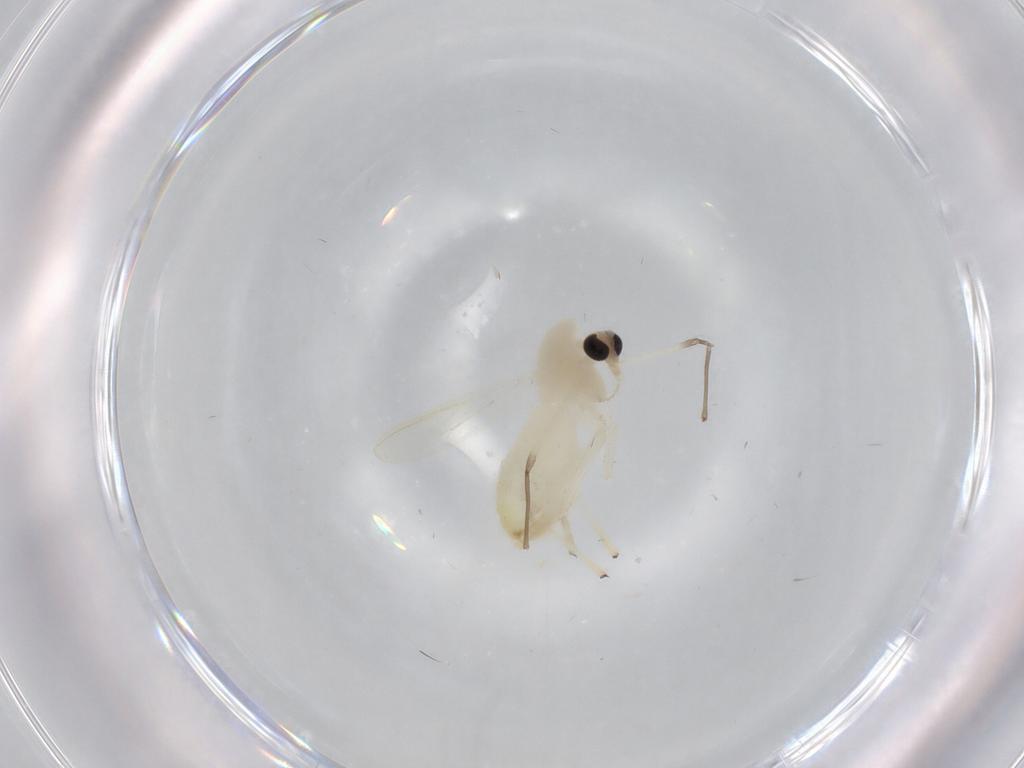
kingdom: Animalia
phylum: Arthropoda
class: Insecta
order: Diptera
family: Chironomidae
